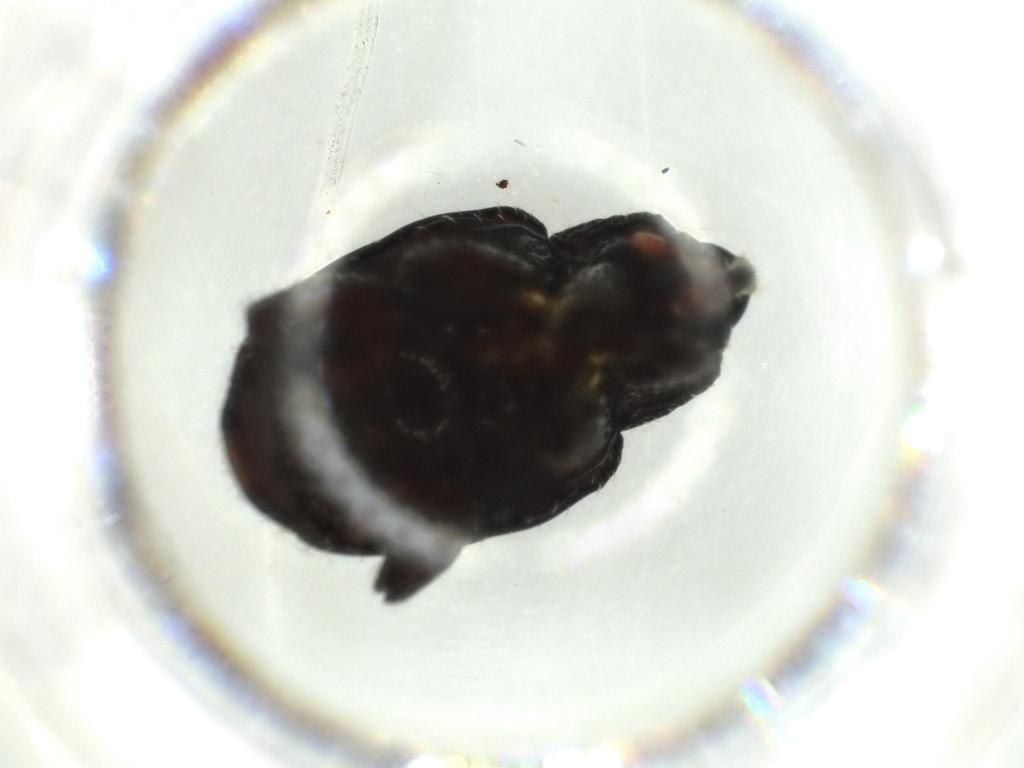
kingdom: Animalia
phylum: Arthropoda
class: Insecta
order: Coleoptera
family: Curculionidae
